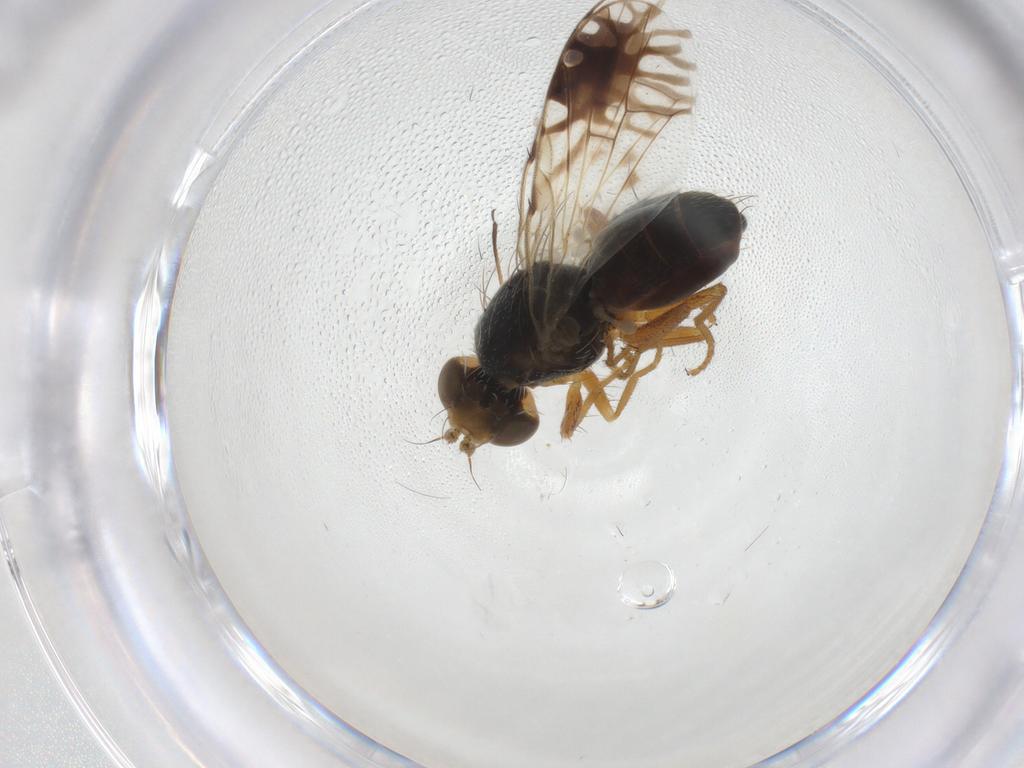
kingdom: Animalia
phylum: Arthropoda
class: Insecta
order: Diptera
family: Tephritidae
